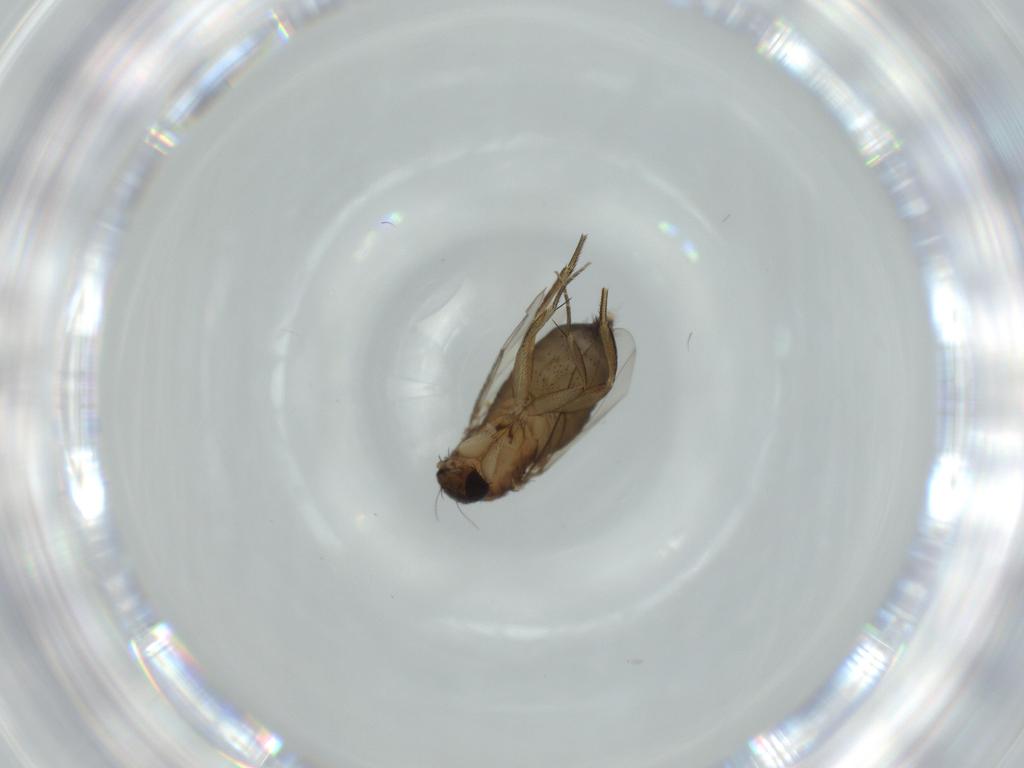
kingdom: Animalia
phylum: Arthropoda
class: Insecta
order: Diptera
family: Phoridae
